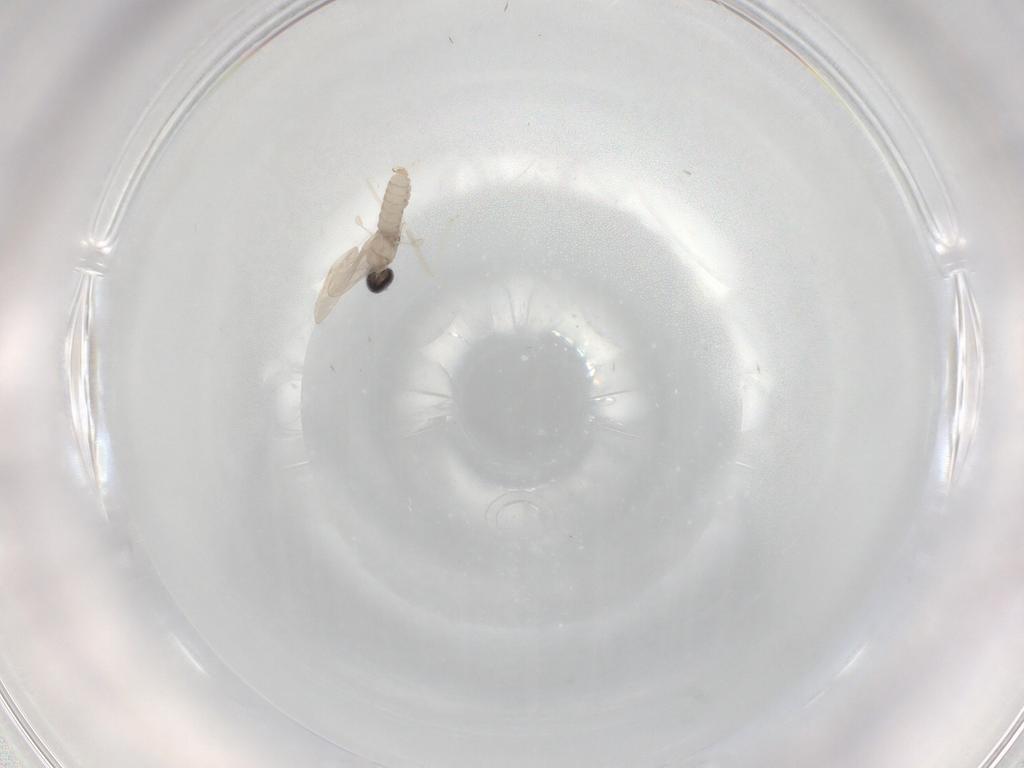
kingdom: Animalia
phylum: Arthropoda
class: Insecta
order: Diptera
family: Cecidomyiidae
